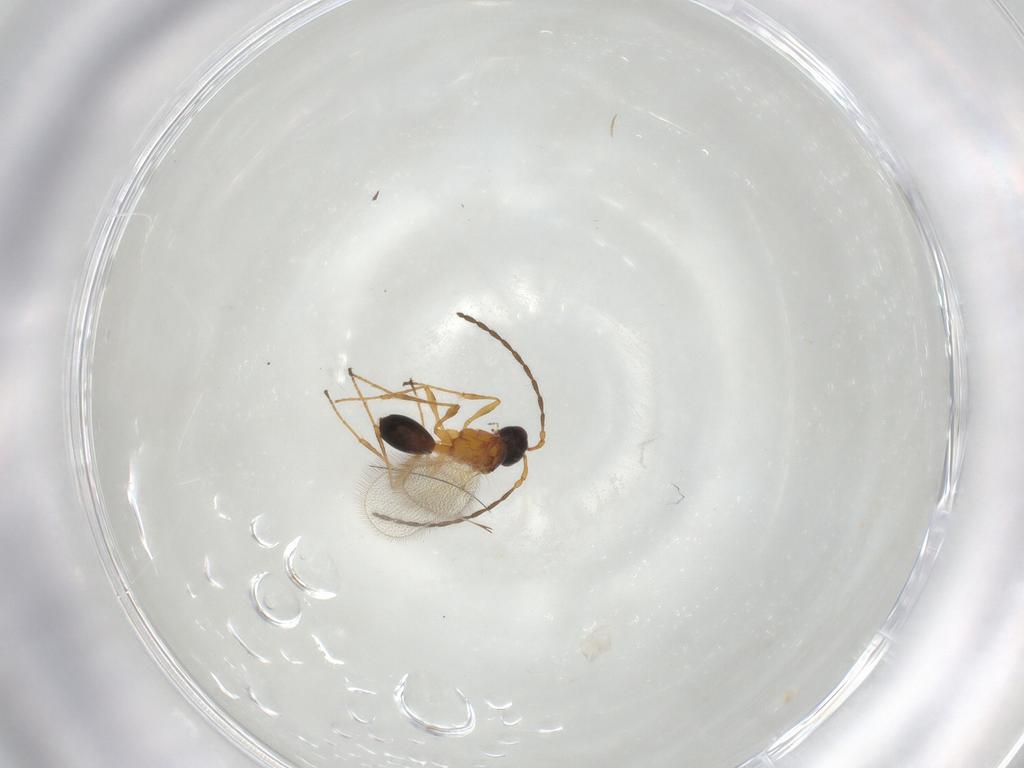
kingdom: Animalia
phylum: Arthropoda
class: Insecta
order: Hymenoptera
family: Diapriidae
